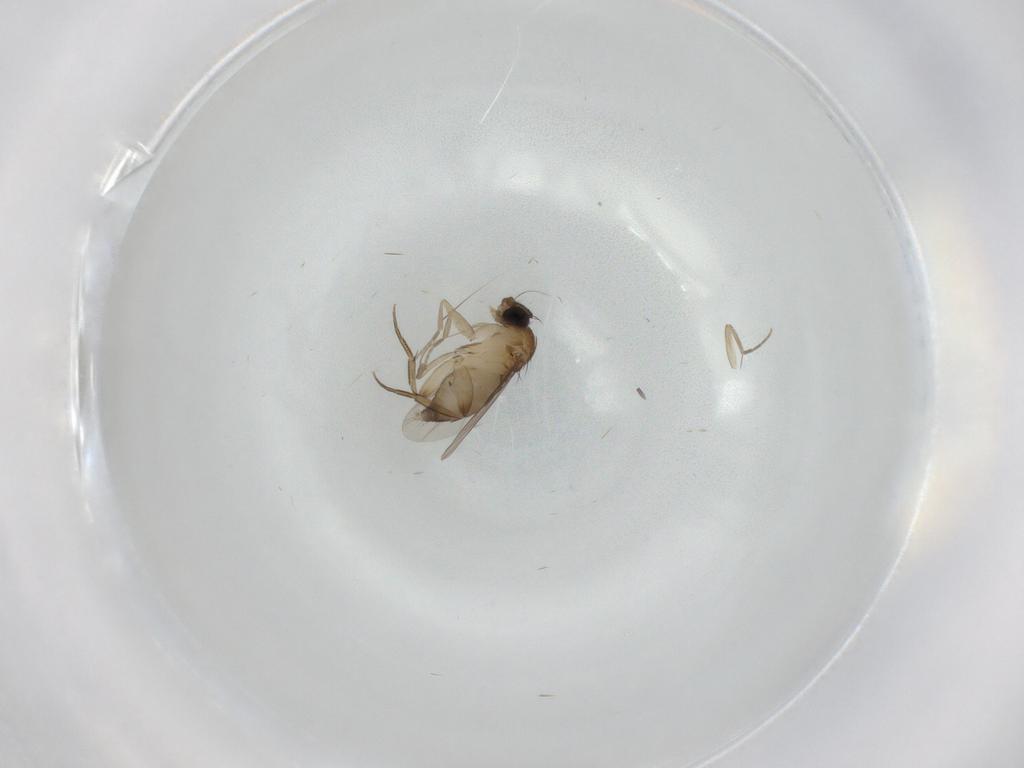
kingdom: Animalia
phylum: Arthropoda
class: Insecta
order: Diptera
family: Phoridae
